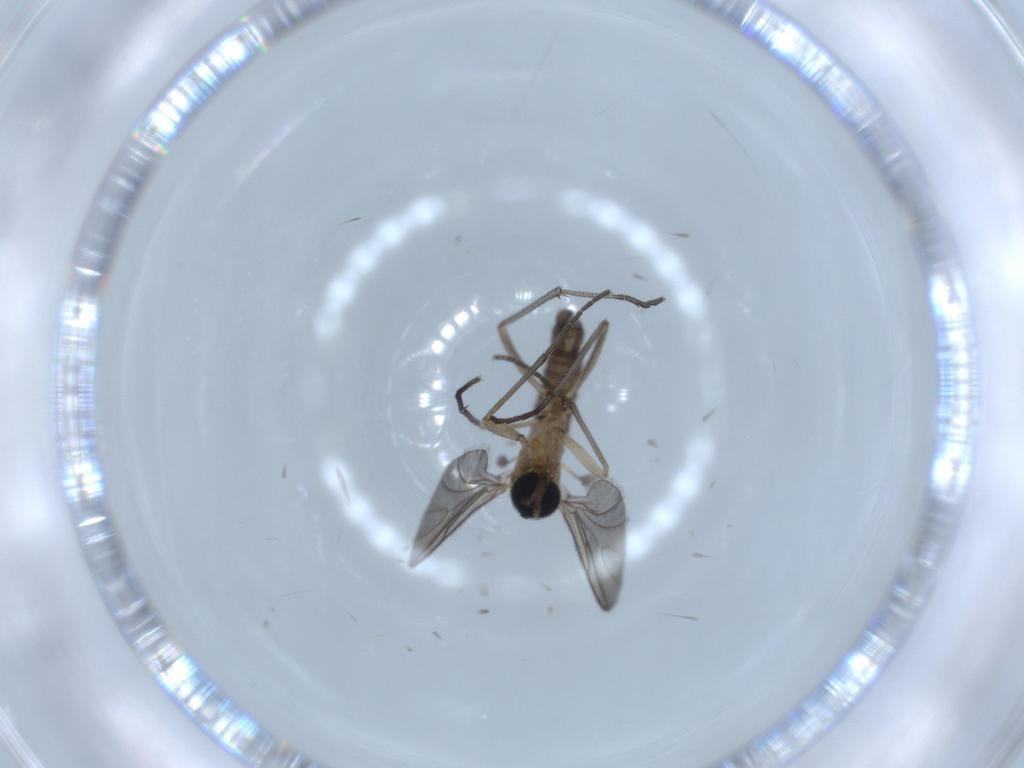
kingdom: Animalia
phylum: Arthropoda
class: Insecta
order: Diptera
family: Sciaridae
